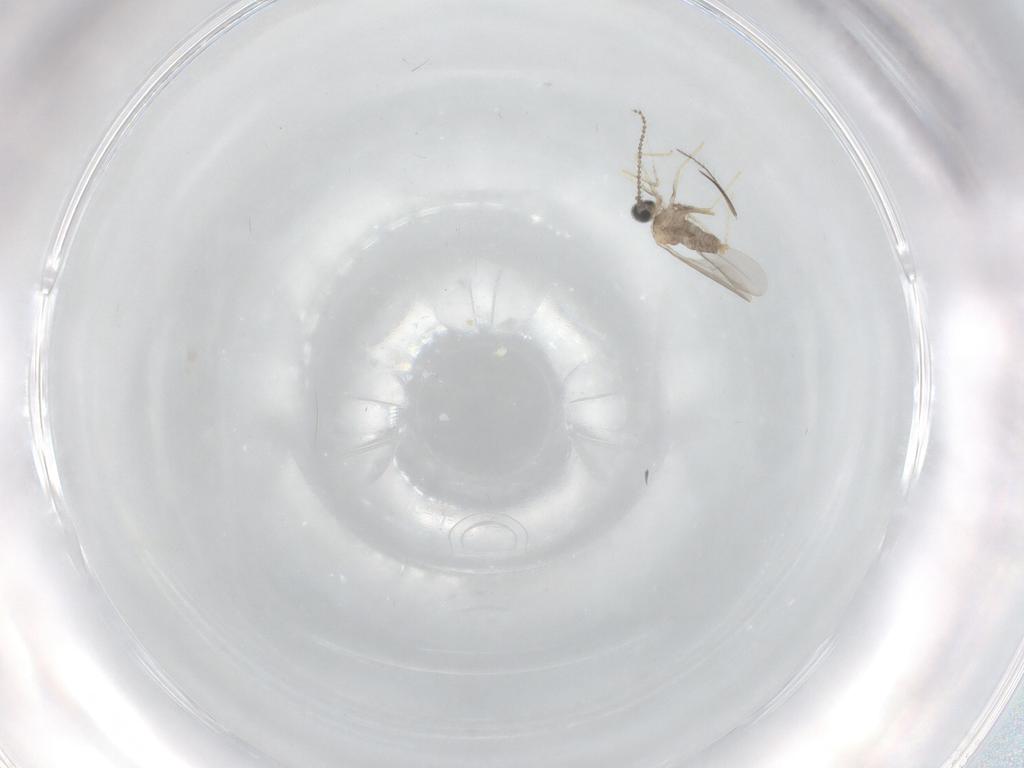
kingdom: Animalia
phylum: Arthropoda
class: Insecta
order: Diptera
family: Cecidomyiidae
